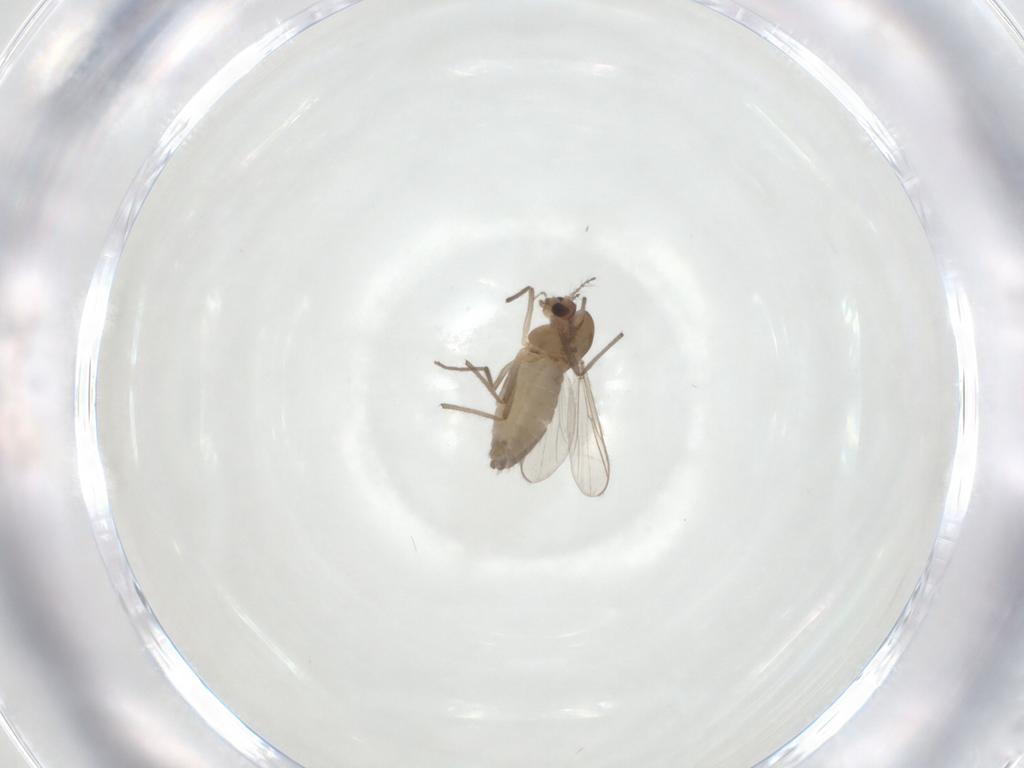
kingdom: Animalia
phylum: Arthropoda
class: Insecta
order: Diptera
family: Chironomidae
